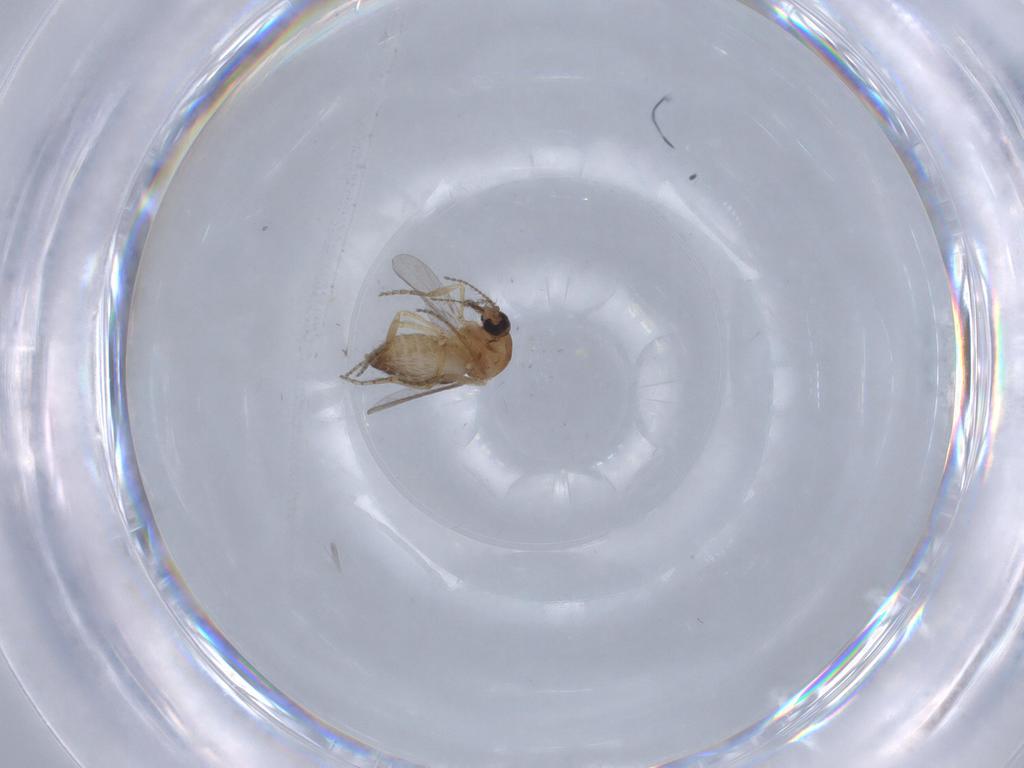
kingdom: Animalia
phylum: Arthropoda
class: Insecta
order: Diptera
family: Ceratopogonidae
